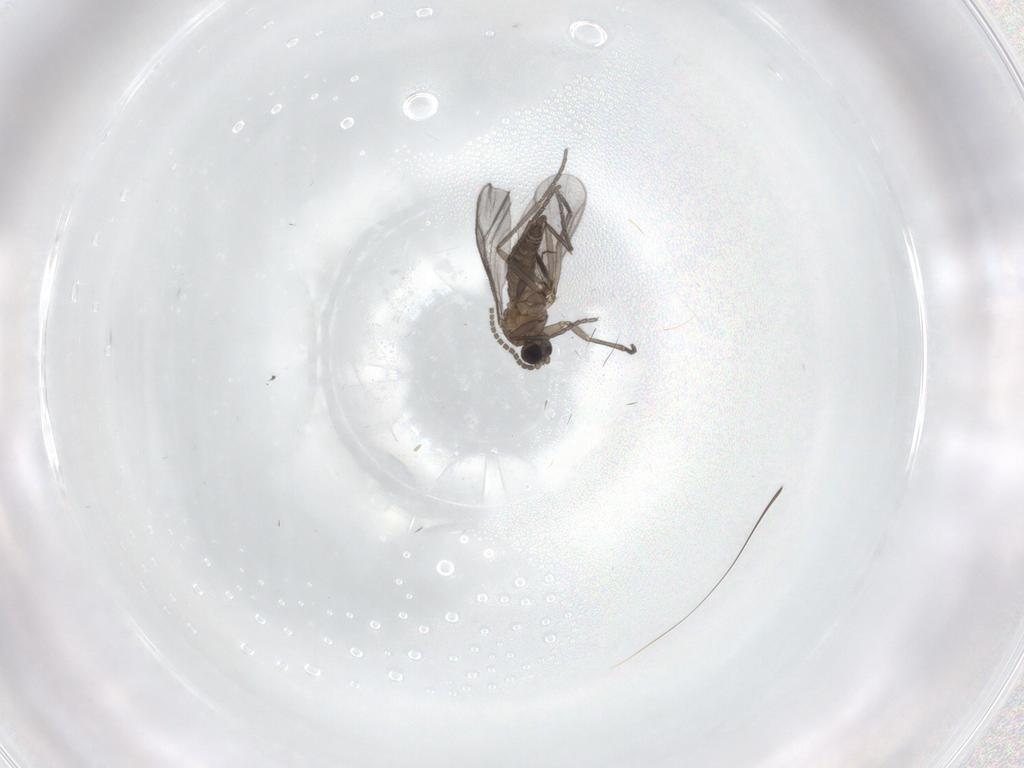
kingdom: Animalia
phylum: Arthropoda
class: Insecta
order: Diptera
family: Sciaridae
